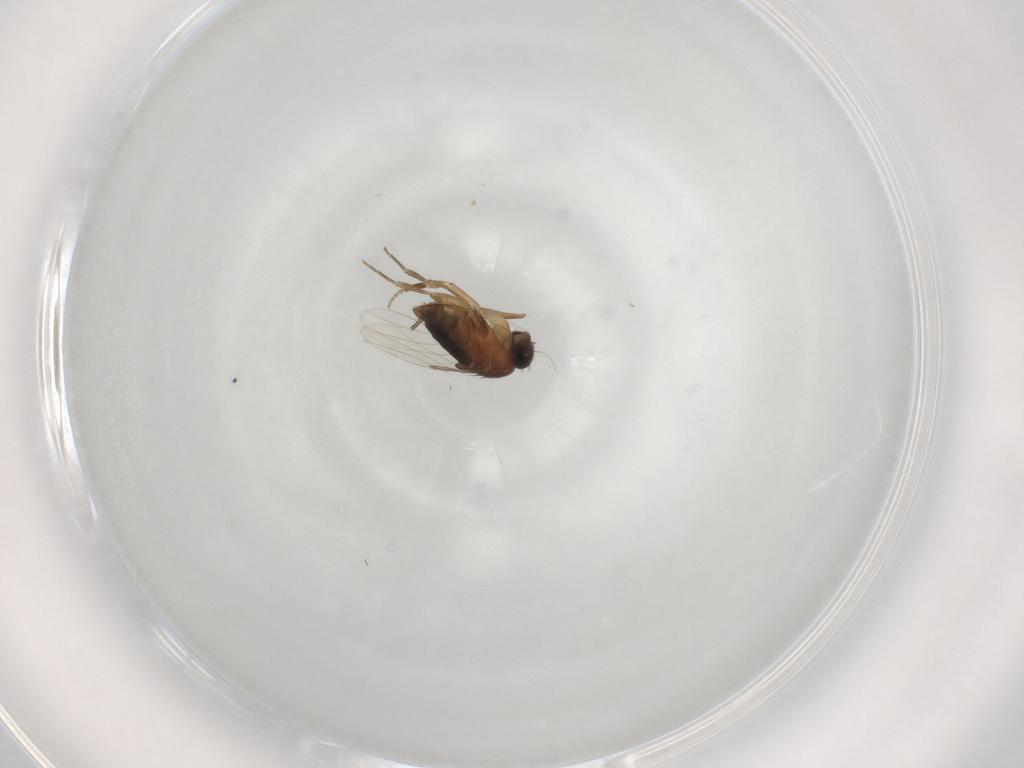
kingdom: Animalia
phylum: Arthropoda
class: Insecta
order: Diptera
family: Phoridae
